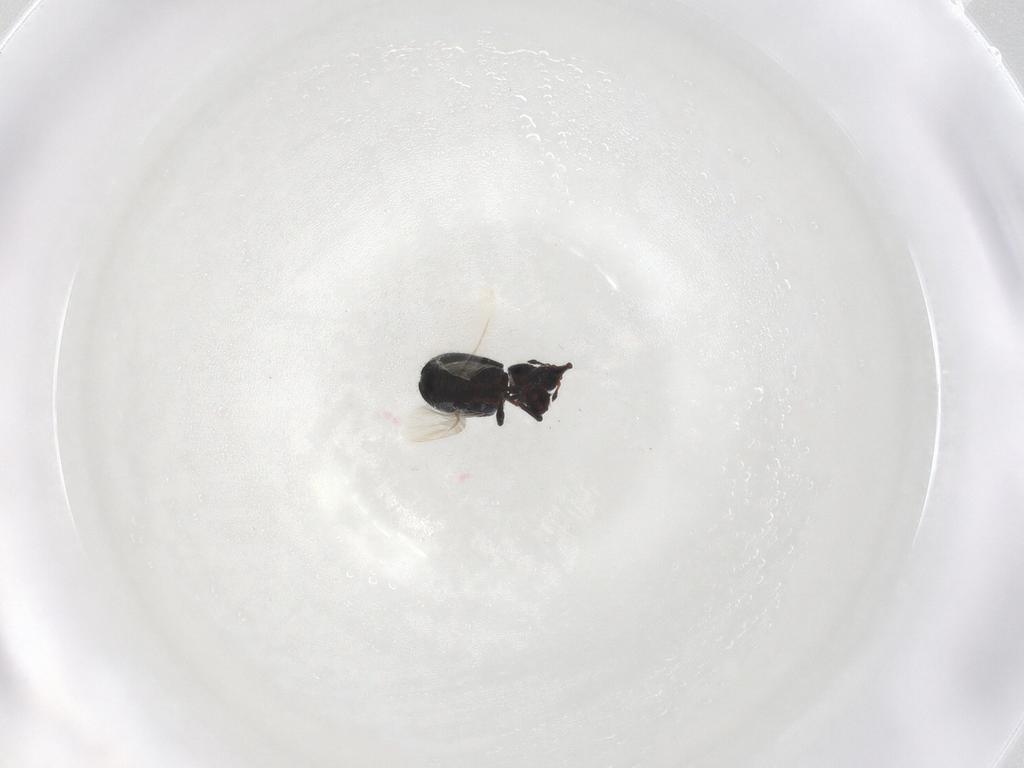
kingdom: Animalia
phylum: Arthropoda
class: Insecta
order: Coleoptera
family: Curculionidae
